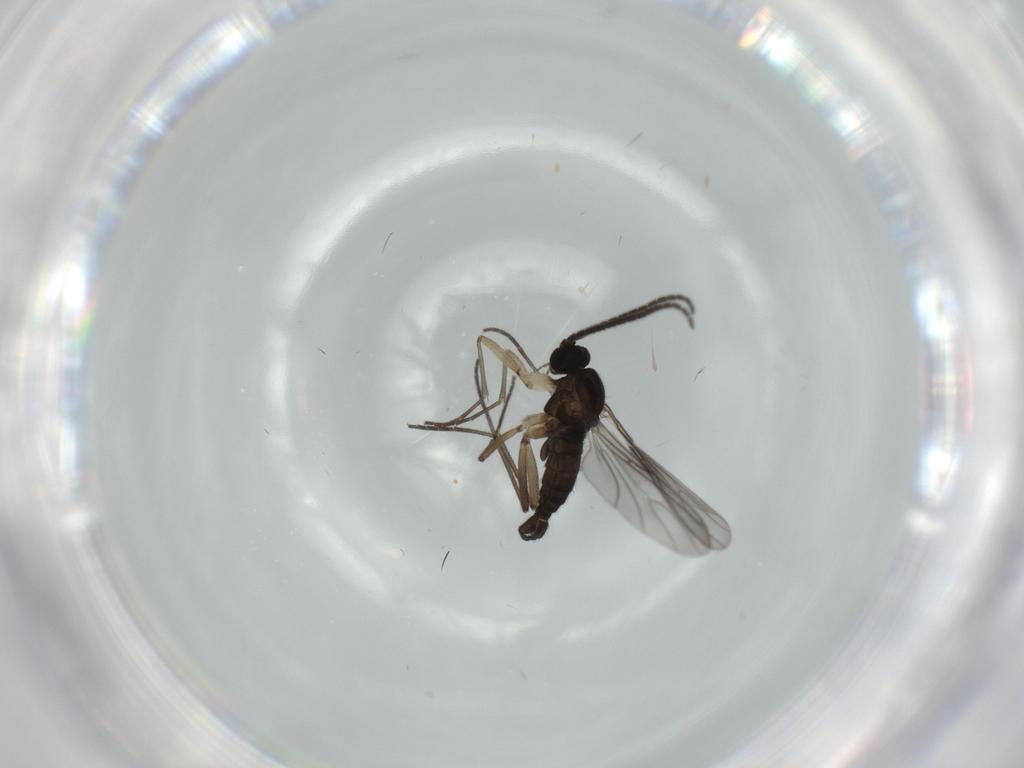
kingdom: Animalia
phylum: Arthropoda
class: Insecta
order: Diptera
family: Sciaridae
